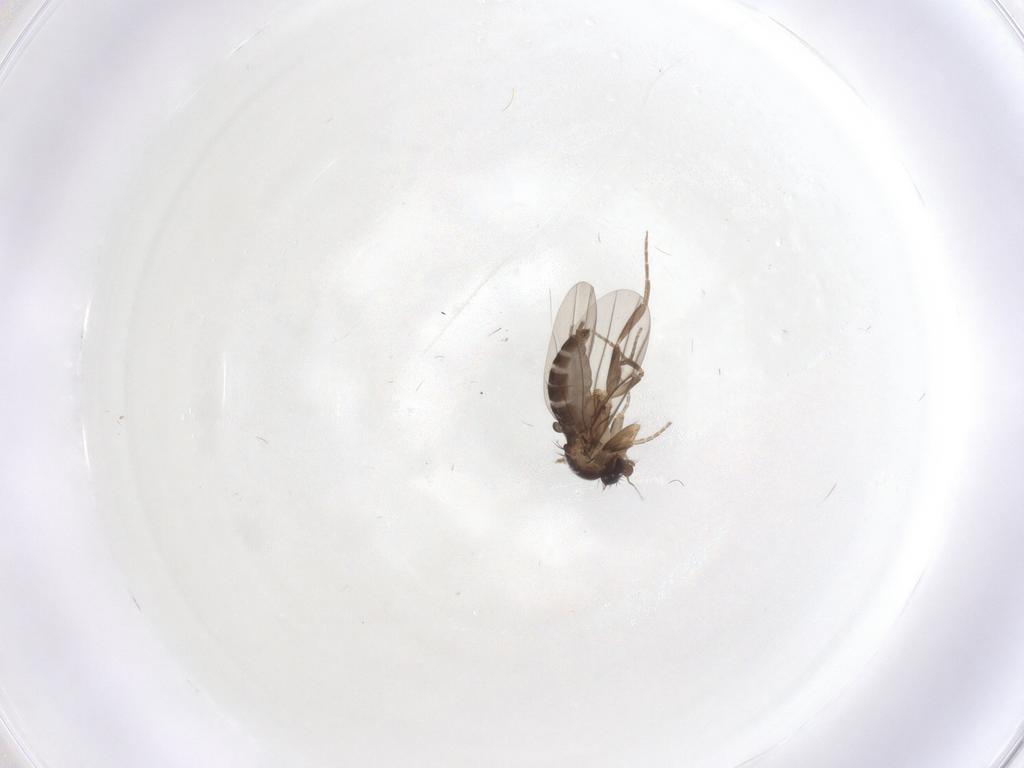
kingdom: Animalia
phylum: Arthropoda
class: Insecta
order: Diptera
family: Phoridae
